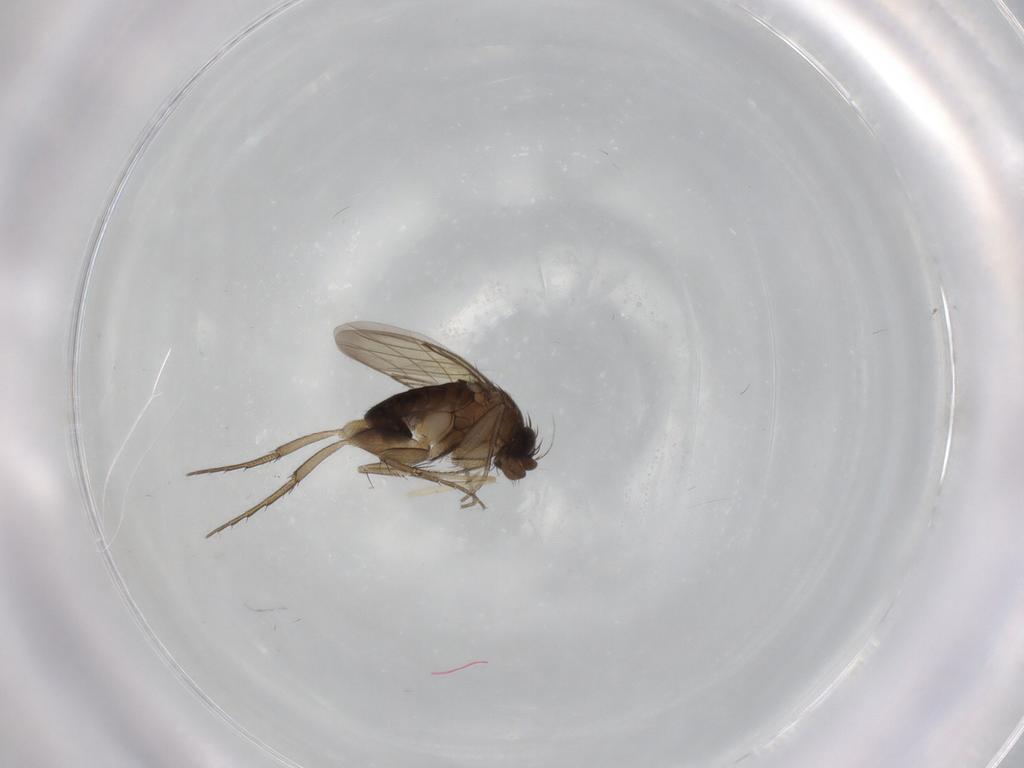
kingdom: Animalia
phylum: Arthropoda
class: Insecta
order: Diptera
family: Phoridae
